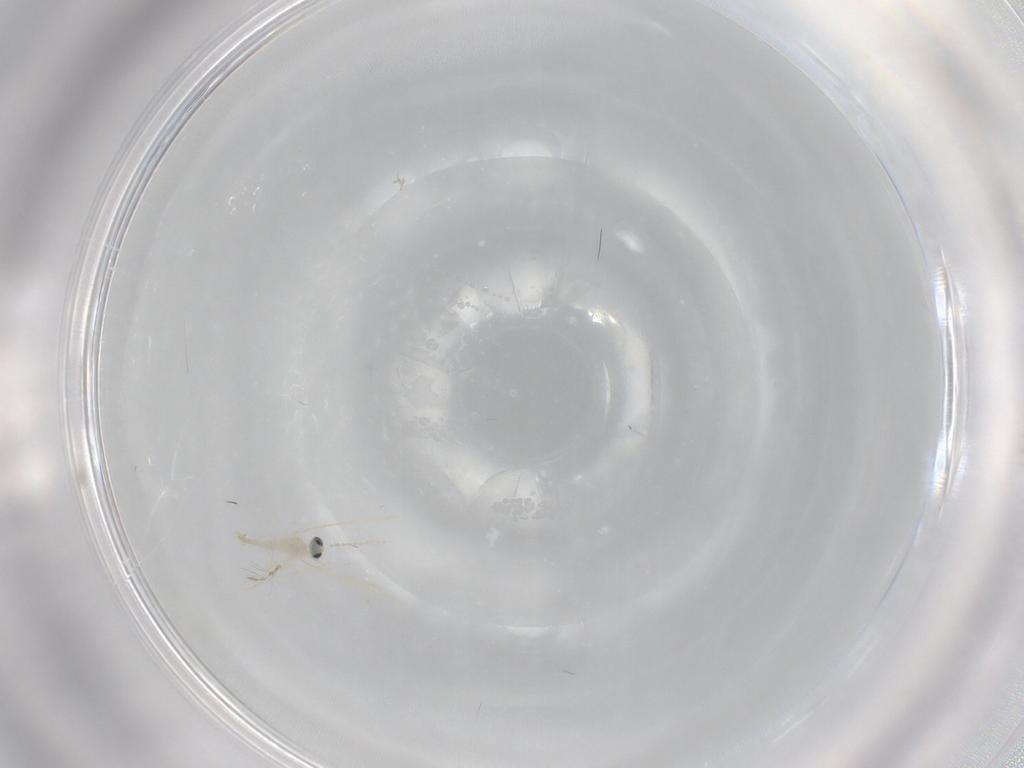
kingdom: Animalia
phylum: Arthropoda
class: Insecta
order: Diptera
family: Cecidomyiidae
